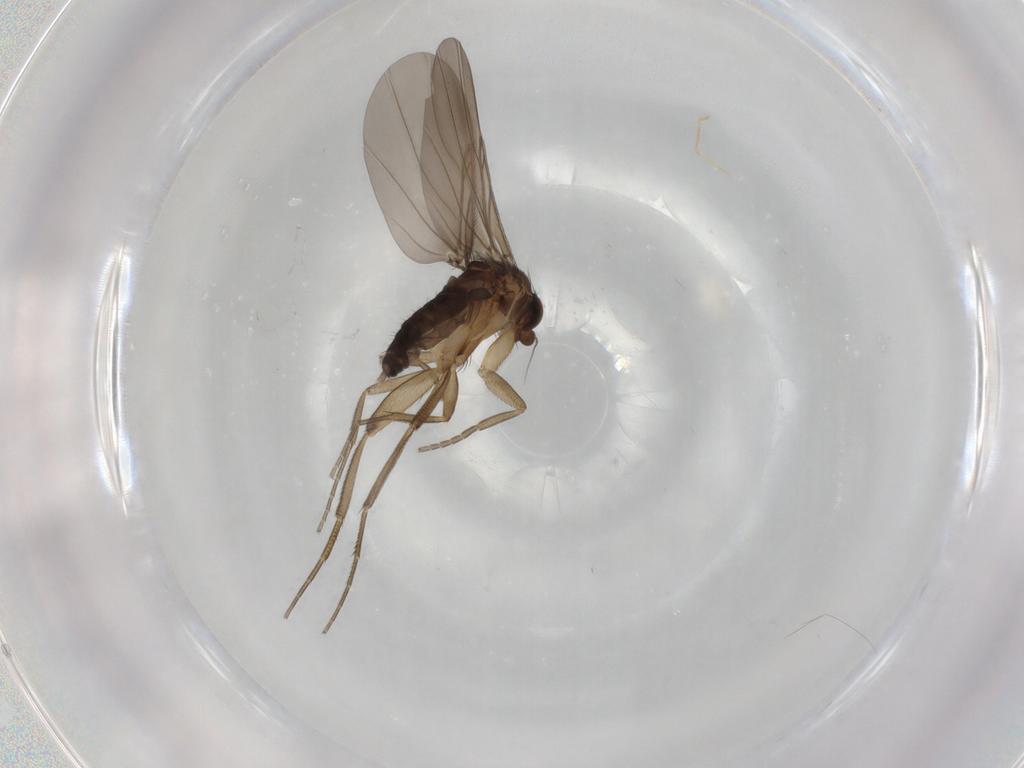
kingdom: Animalia
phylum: Arthropoda
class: Insecta
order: Diptera
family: Phoridae
